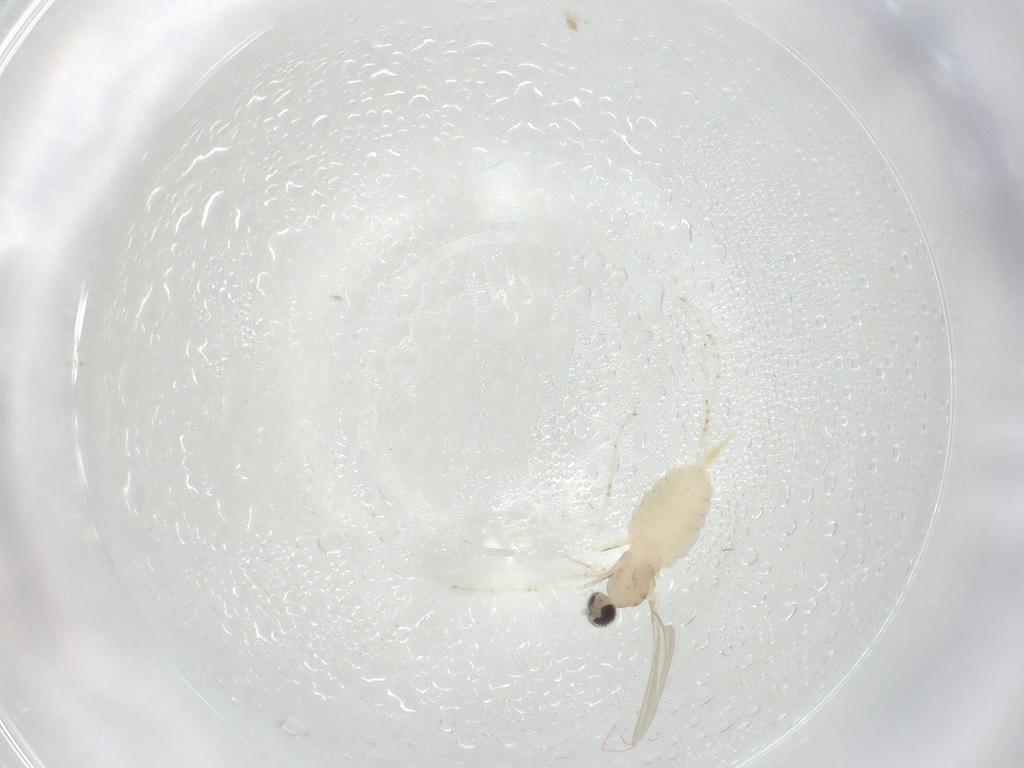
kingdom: Animalia
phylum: Arthropoda
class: Insecta
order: Diptera
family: Cecidomyiidae
